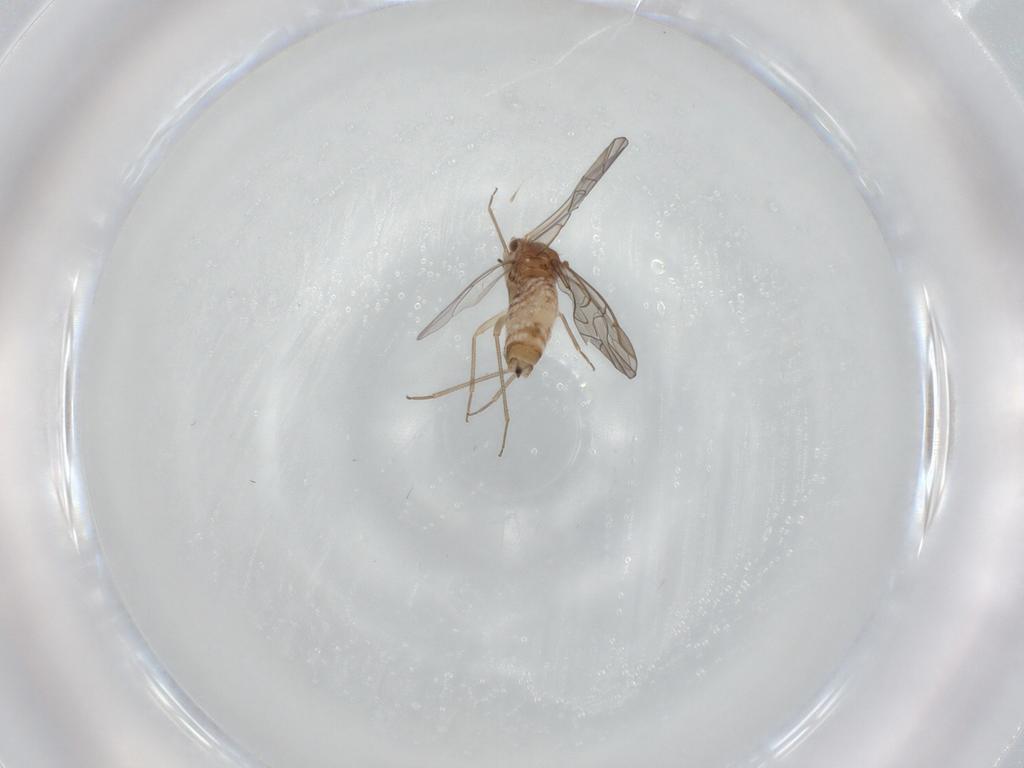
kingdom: Animalia
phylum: Arthropoda
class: Insecta
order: Psocodea
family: Lachesillidae
